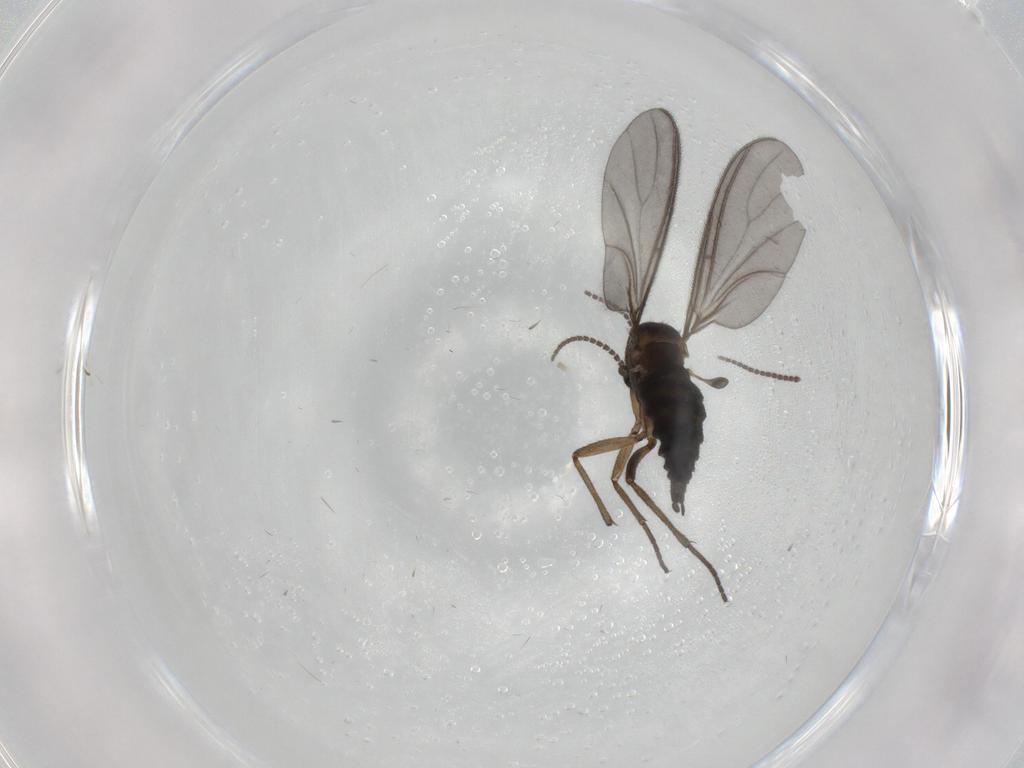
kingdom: Animalia
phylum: Arthropoda
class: Insecta
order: Diptera
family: Sciaridae
